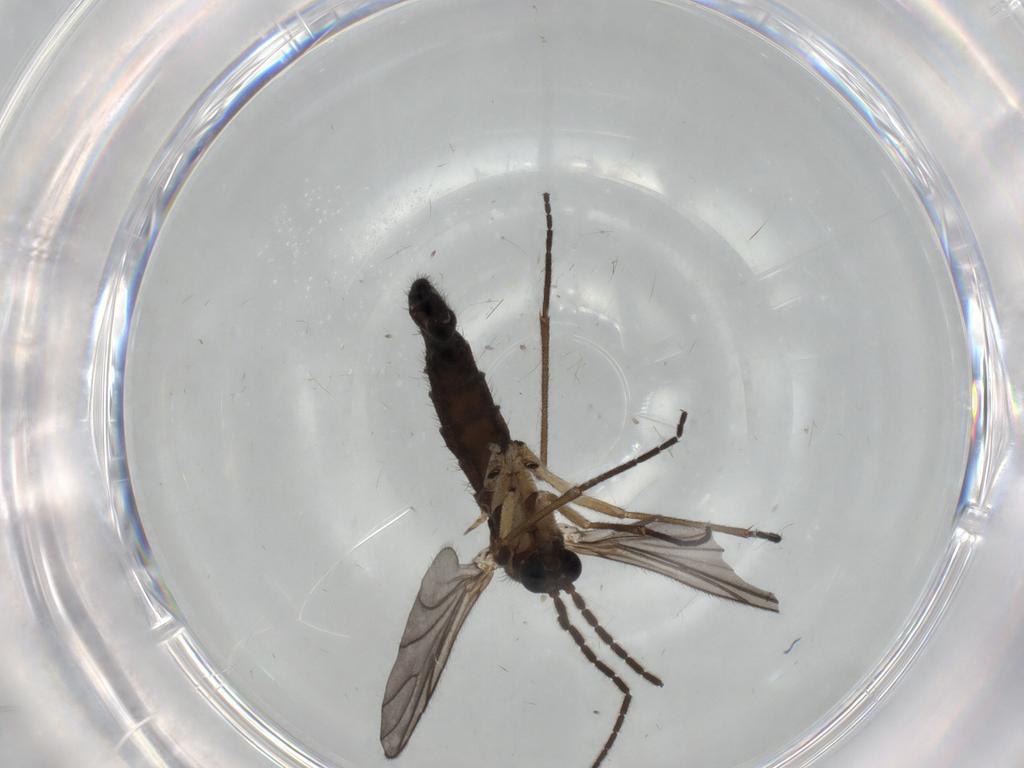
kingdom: Animalia
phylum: Arthropoda
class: Insecta
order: Diptera
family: Sciaridae
